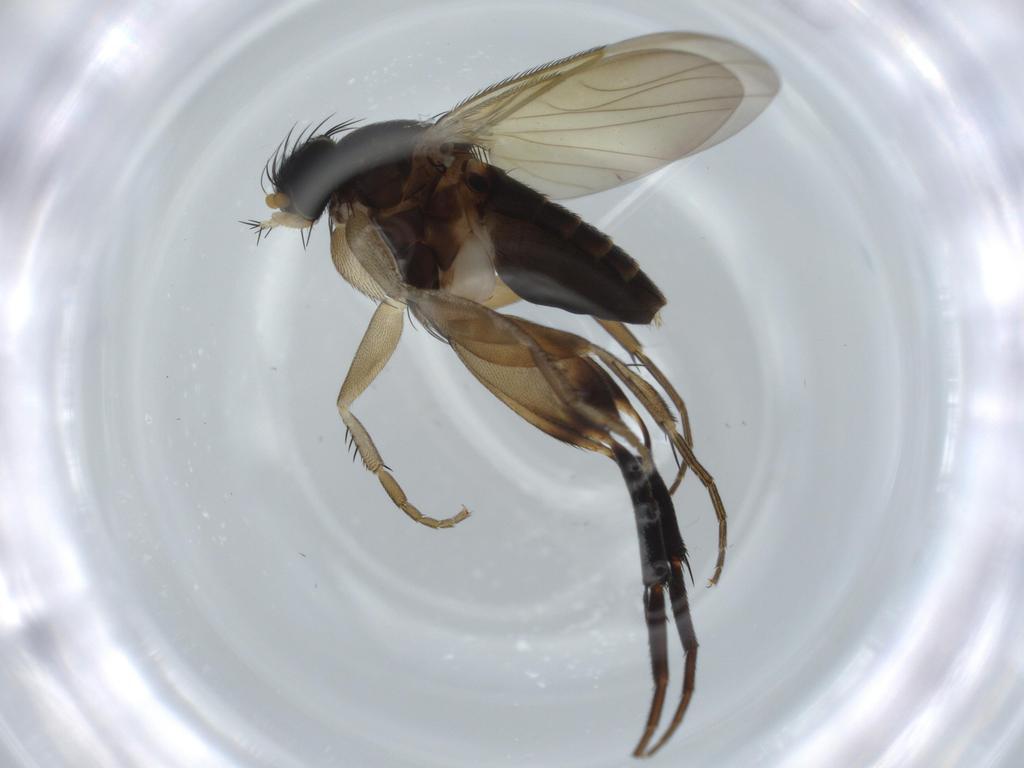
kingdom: Animalia
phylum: Arthropoda
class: Insecta
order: Diptera
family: Phoridae
